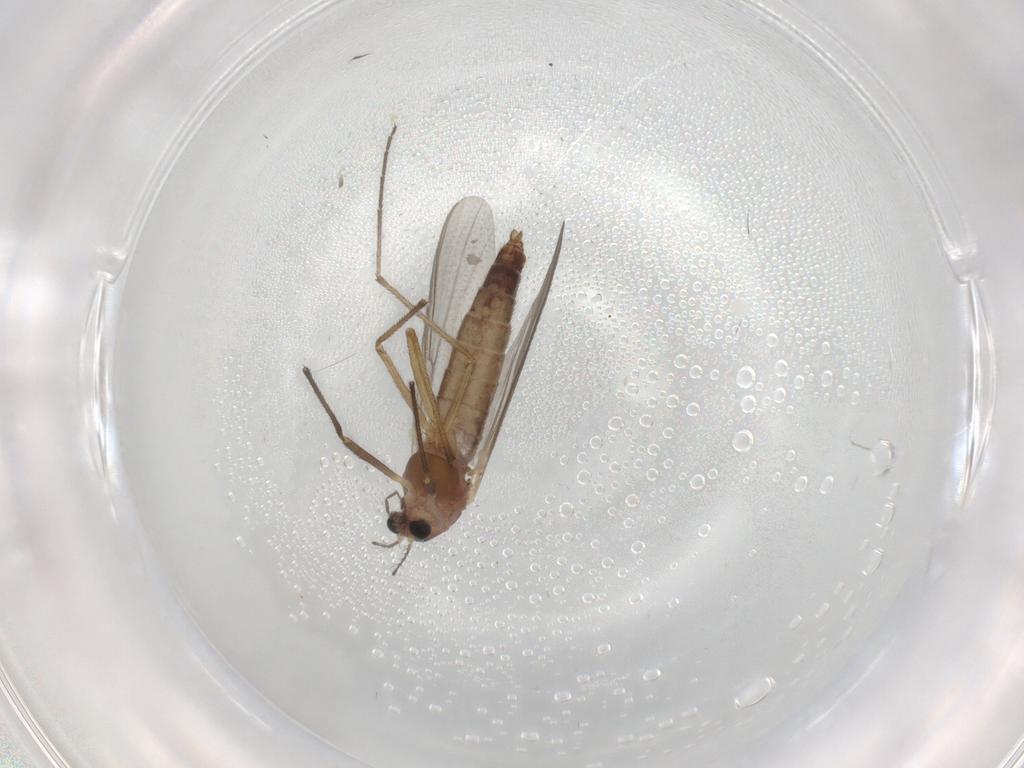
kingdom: Animalia
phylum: Arthropoda
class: Insecta
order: Diptera
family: Chironomidae
